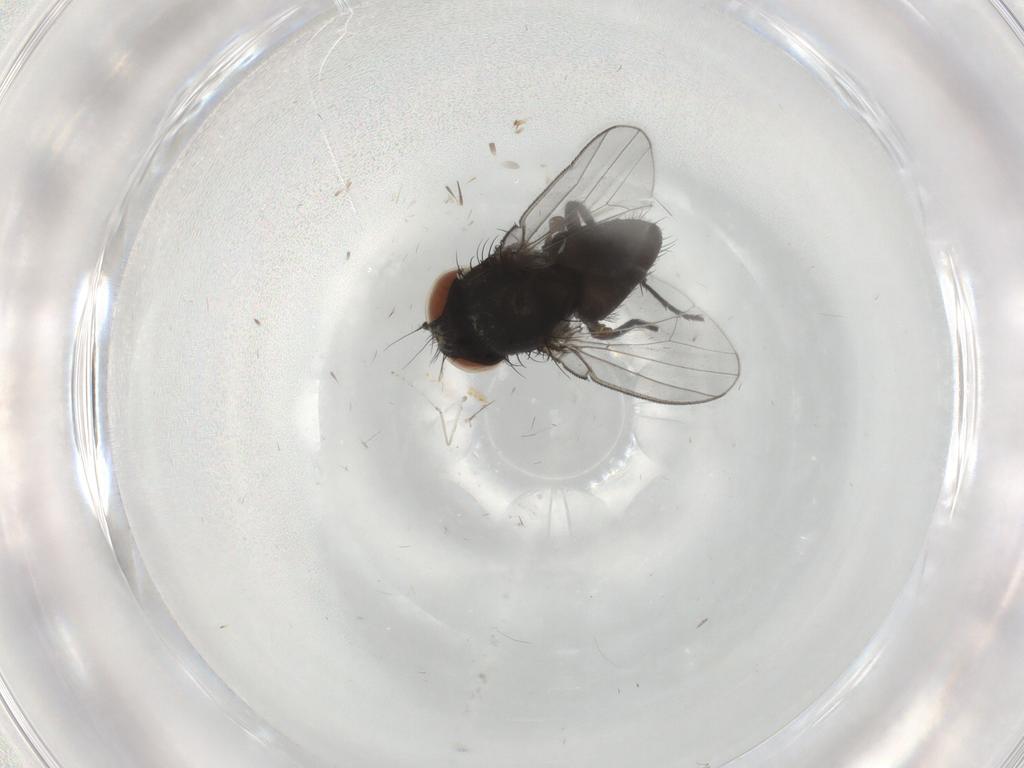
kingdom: Animalia
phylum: Arthropoda
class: Insecta
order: Diptera
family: Milichiidae
